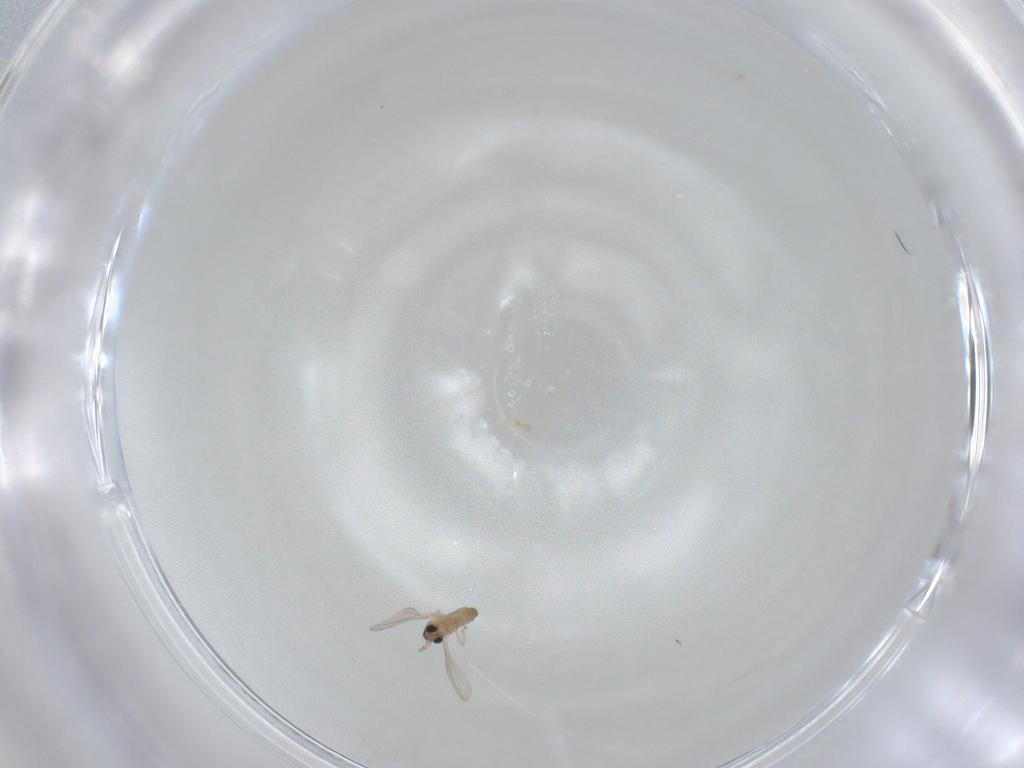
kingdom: Animalia
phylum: Arthropoda
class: Insecta
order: Diptera
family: Cecidomyiidae
